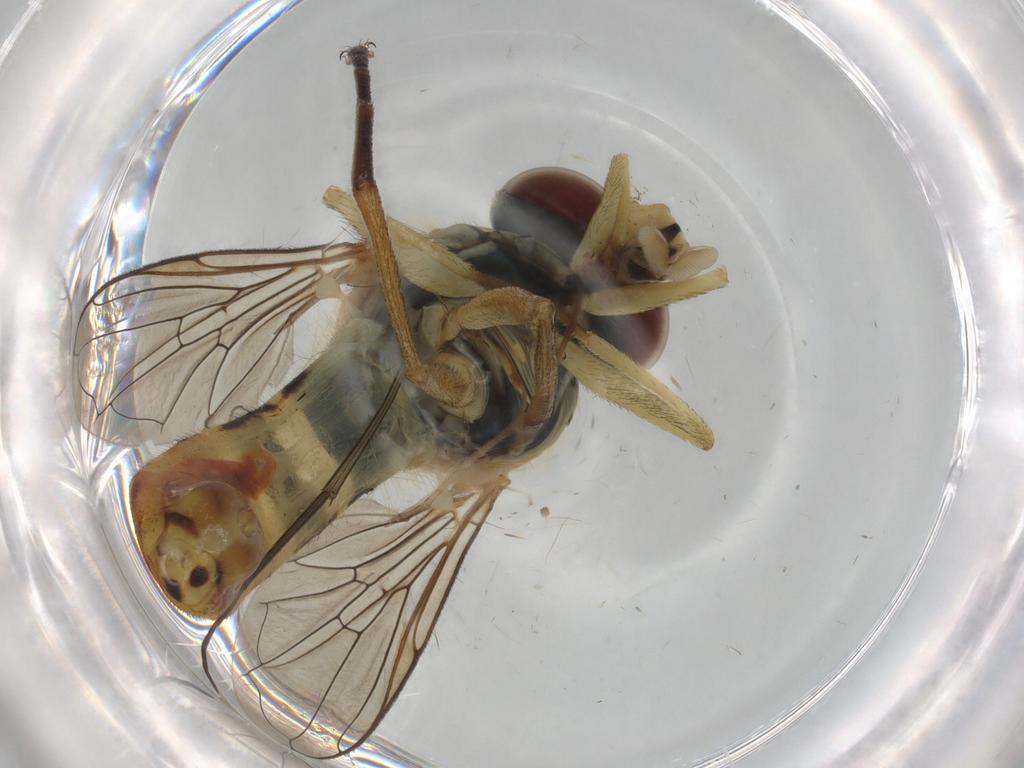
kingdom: Animalia
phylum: Arthropoda
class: Insecta
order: Diptera
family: Syrphidae
